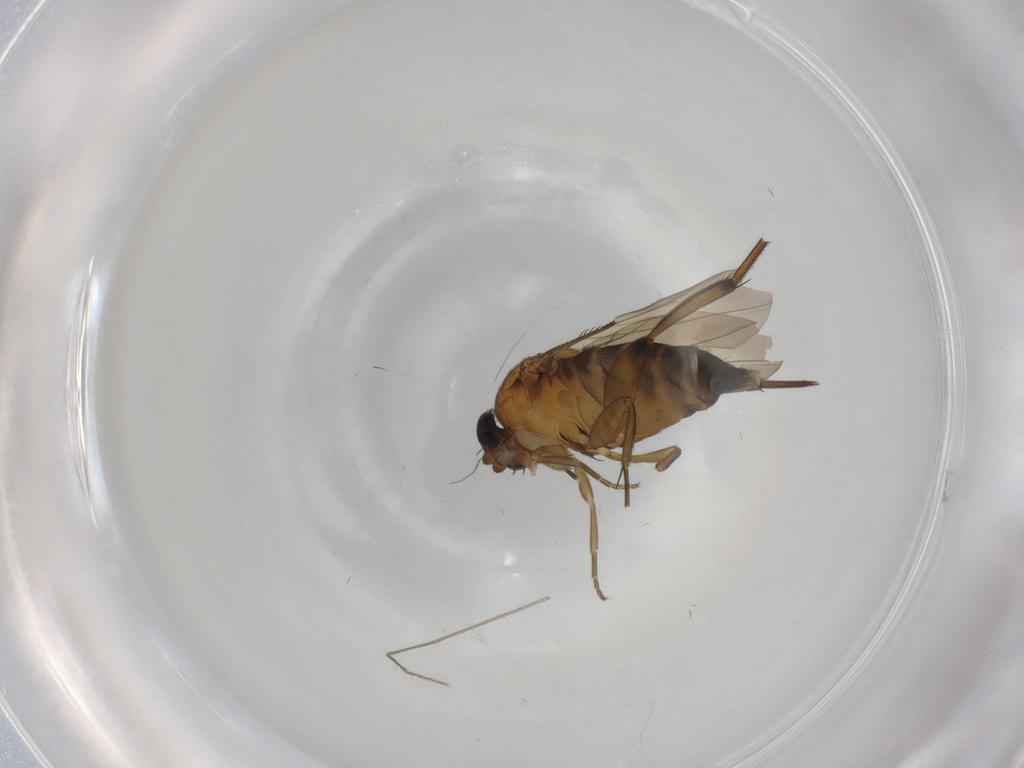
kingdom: Animalia
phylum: Arthropoda
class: Insecta
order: Diptera
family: Phoridae
